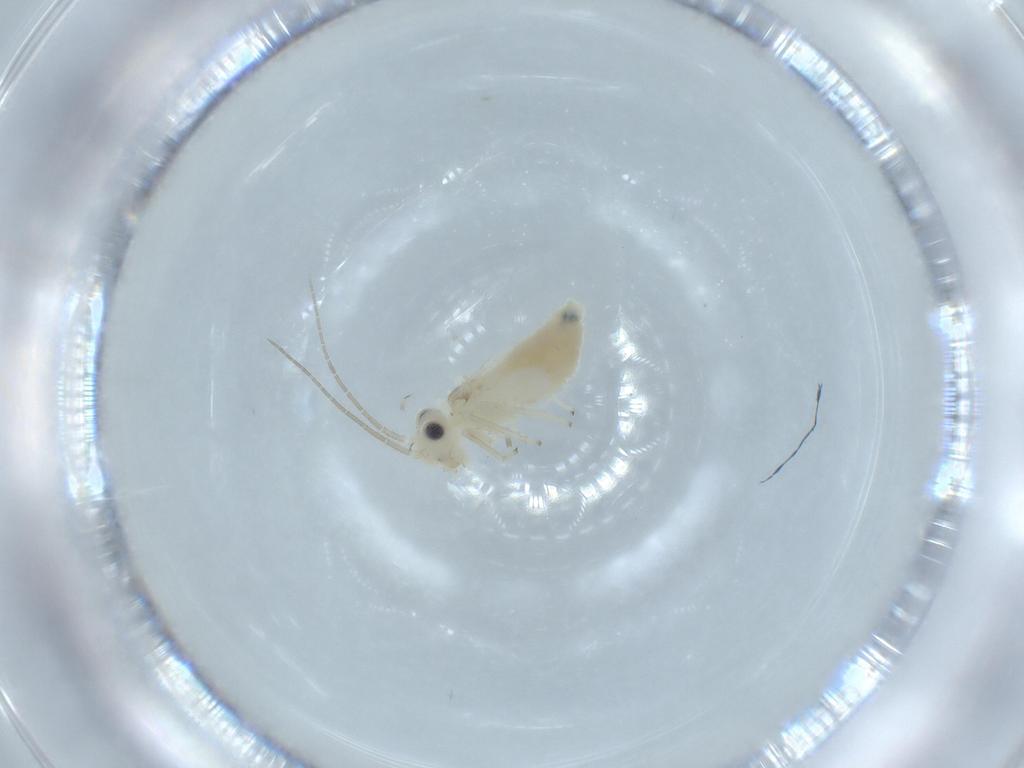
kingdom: Animalia
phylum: Arthropoda
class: Insecta
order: Psocodea
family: Caeciliusidae
